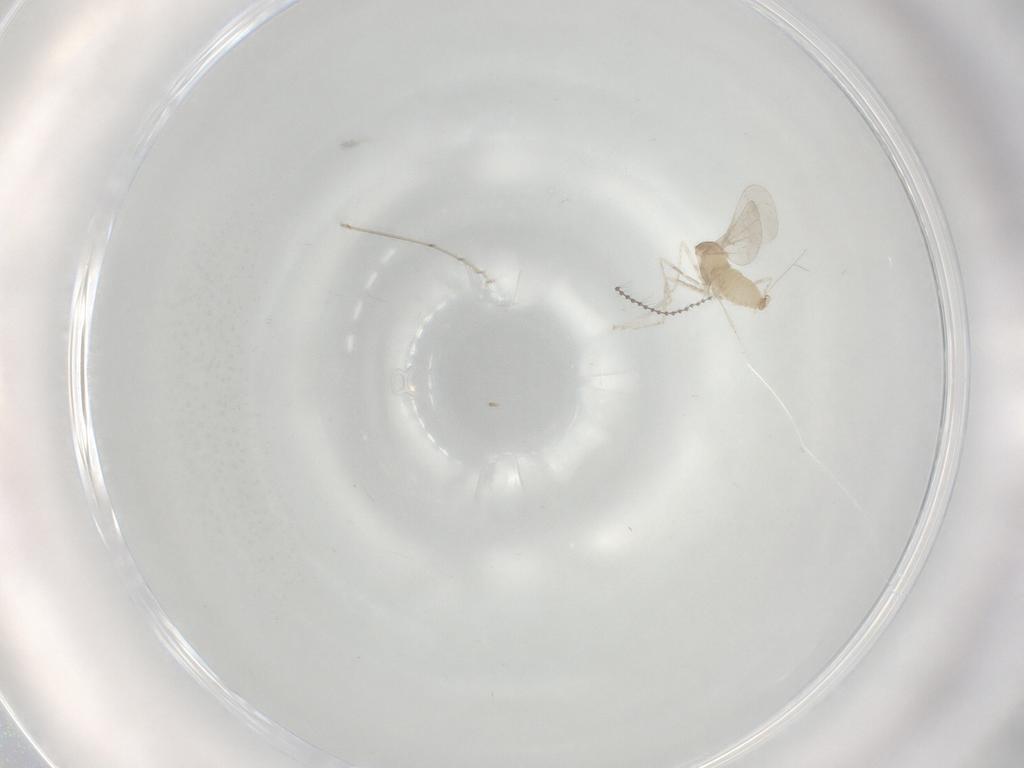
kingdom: Animalia
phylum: Arthropoda
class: Insecta
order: Diptera
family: Cecidomyiidae
